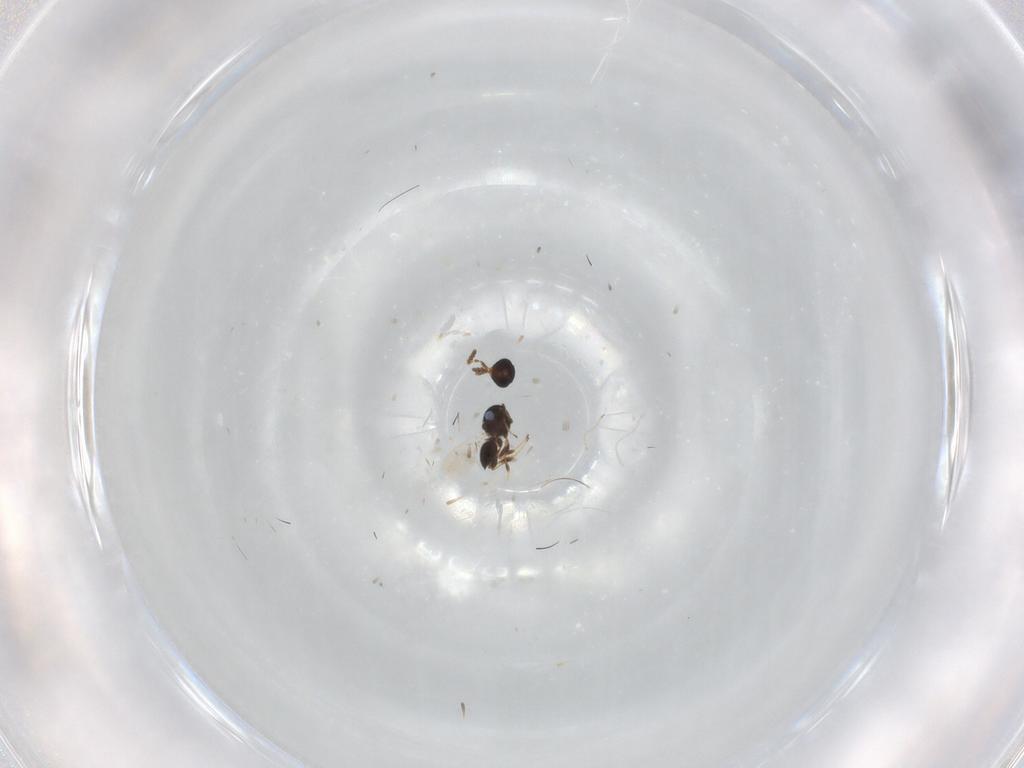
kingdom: Animalia
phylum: Arthropoda
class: Insecta
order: Hymenoptera
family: Platygastridae
